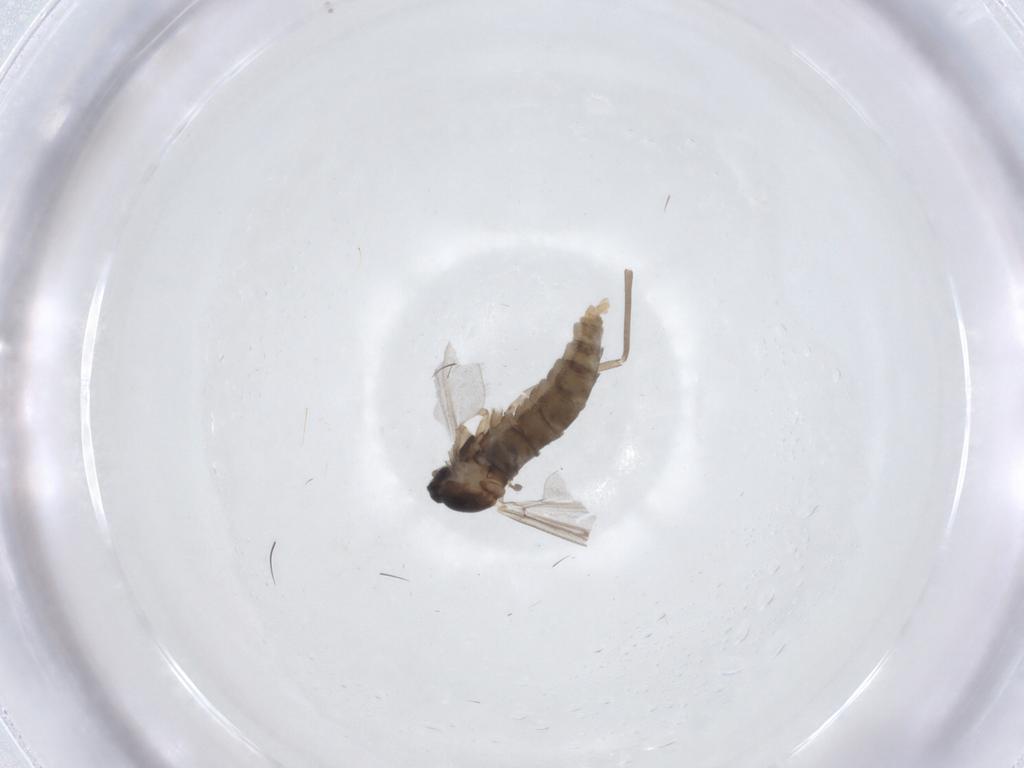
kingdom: Animalia
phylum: Arthropoda
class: Insecta
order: Diptera
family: Cecidomyiidae
